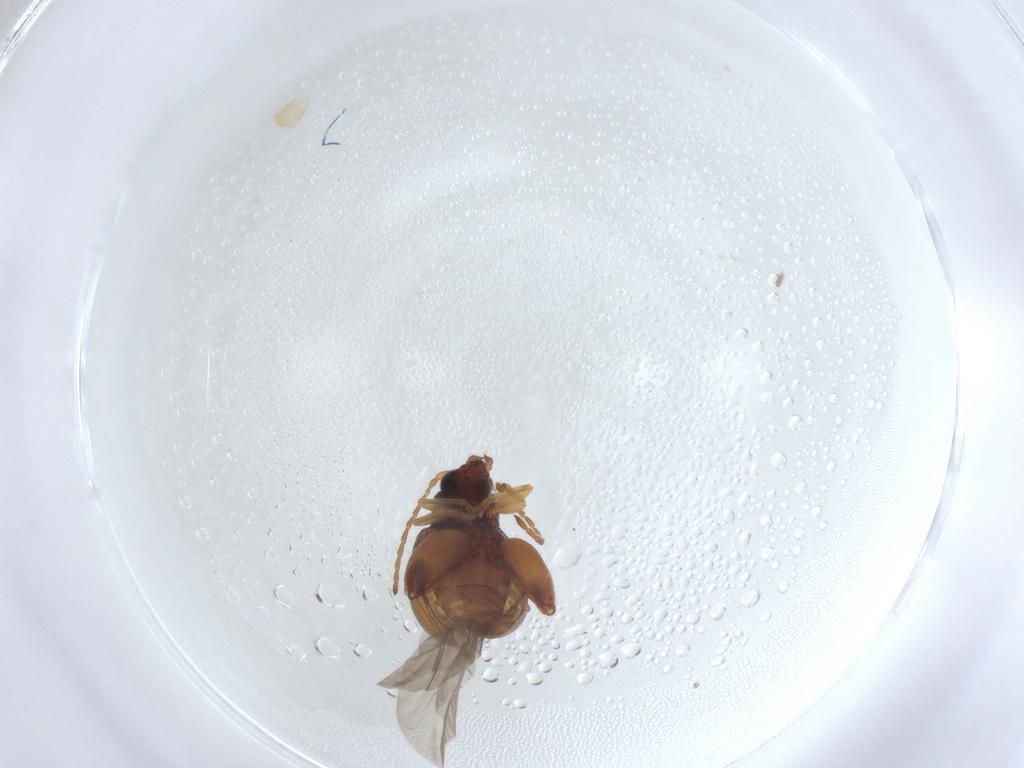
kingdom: Animalia
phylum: Arthropoda
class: Insecta
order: Coleoptera
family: Chrysomelidae
